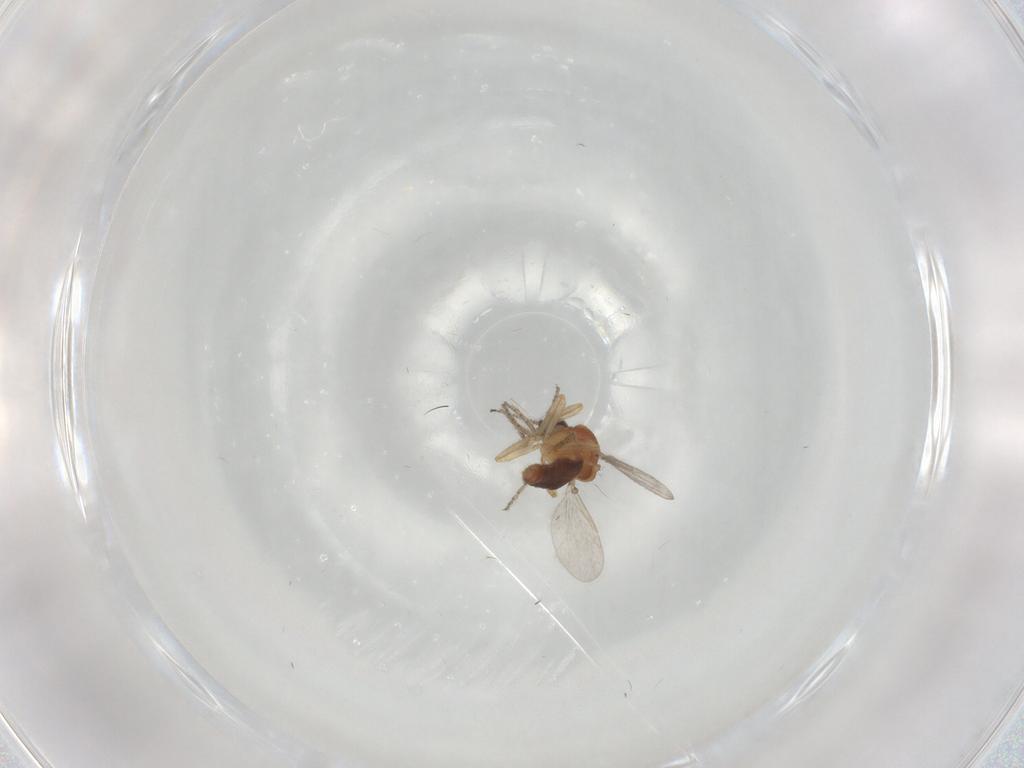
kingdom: Animalia
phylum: Arthropoda
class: Insecta
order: Diptera
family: Ceratopogonidae
